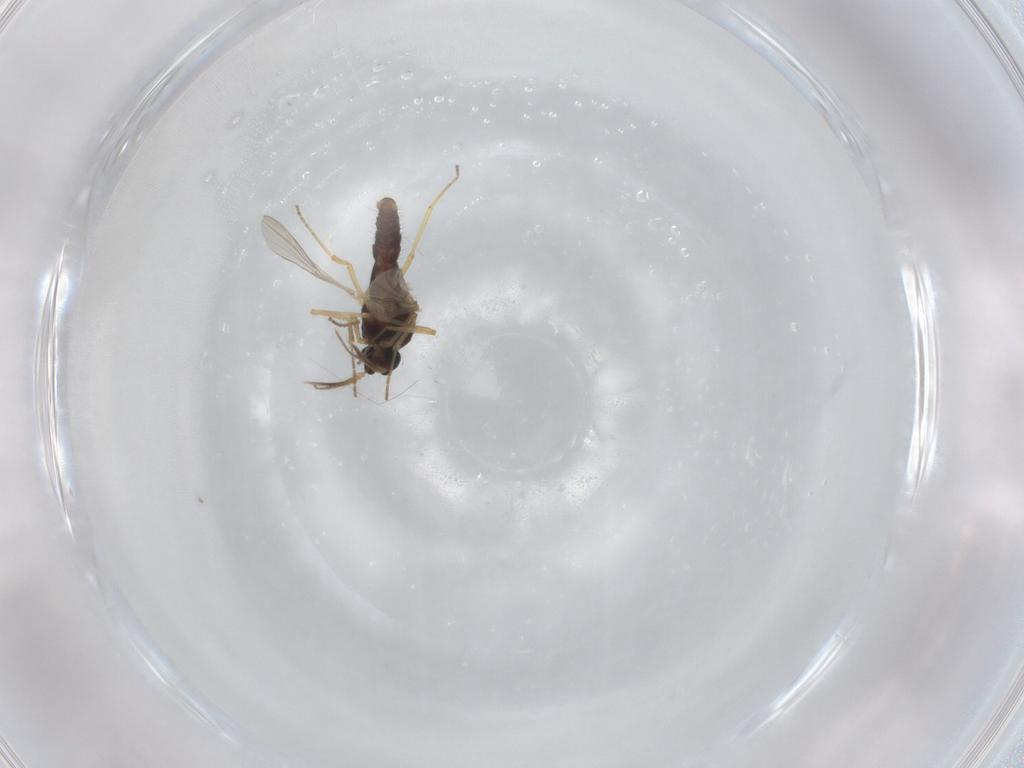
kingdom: Animalia
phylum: Arthropoda
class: Insecta
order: Diptera
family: Ceratopogonidae
